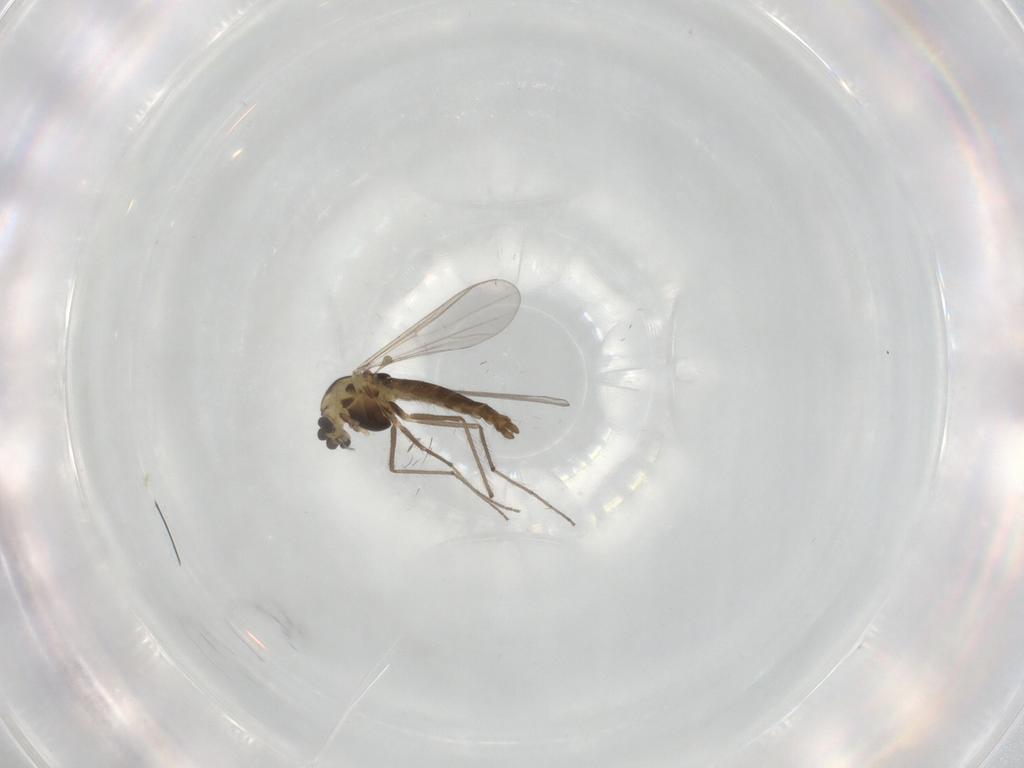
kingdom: Animalia
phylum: Arthropoda
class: Insecta
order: Diptera
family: Chironomidae
